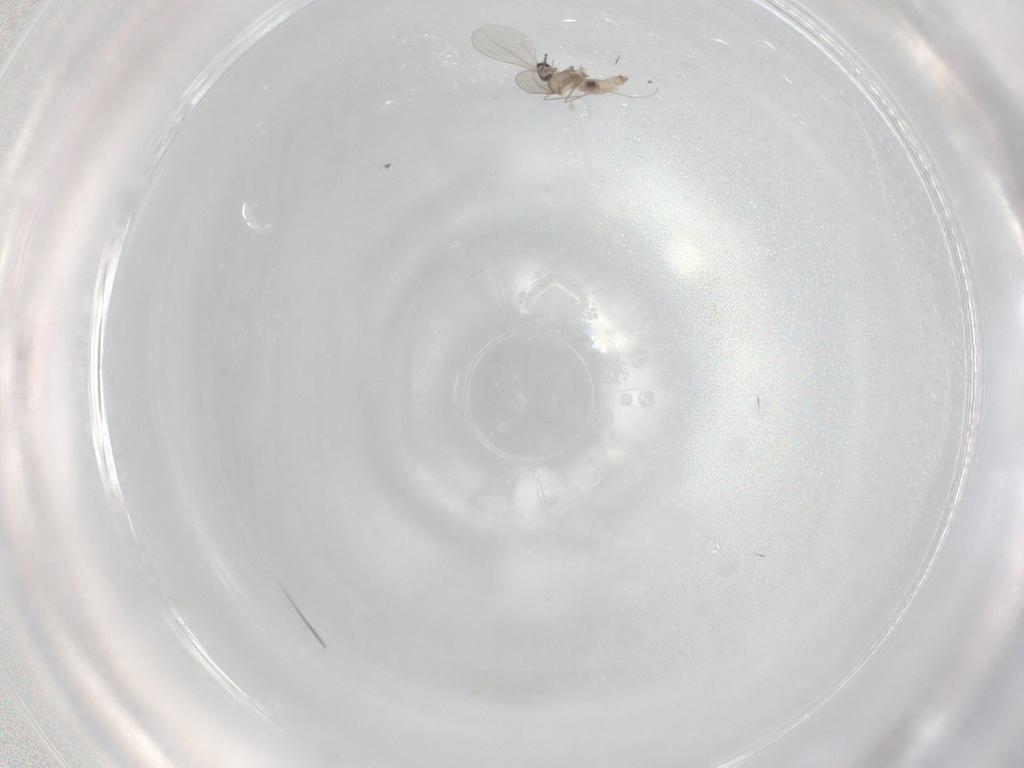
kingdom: Animalia
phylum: Arthropoda
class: Insecta
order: Diptera
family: Cecidomyiidae
